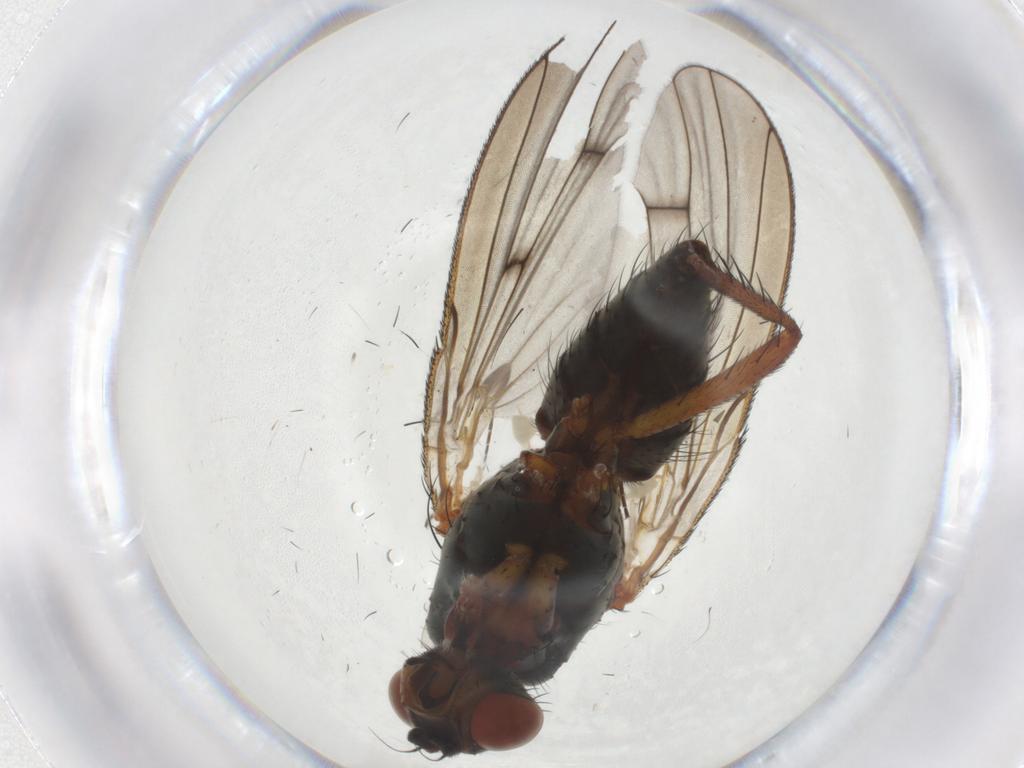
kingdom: Animalia
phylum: Arthropoda
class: Insecta
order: Diptera
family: Anthomyiidae
